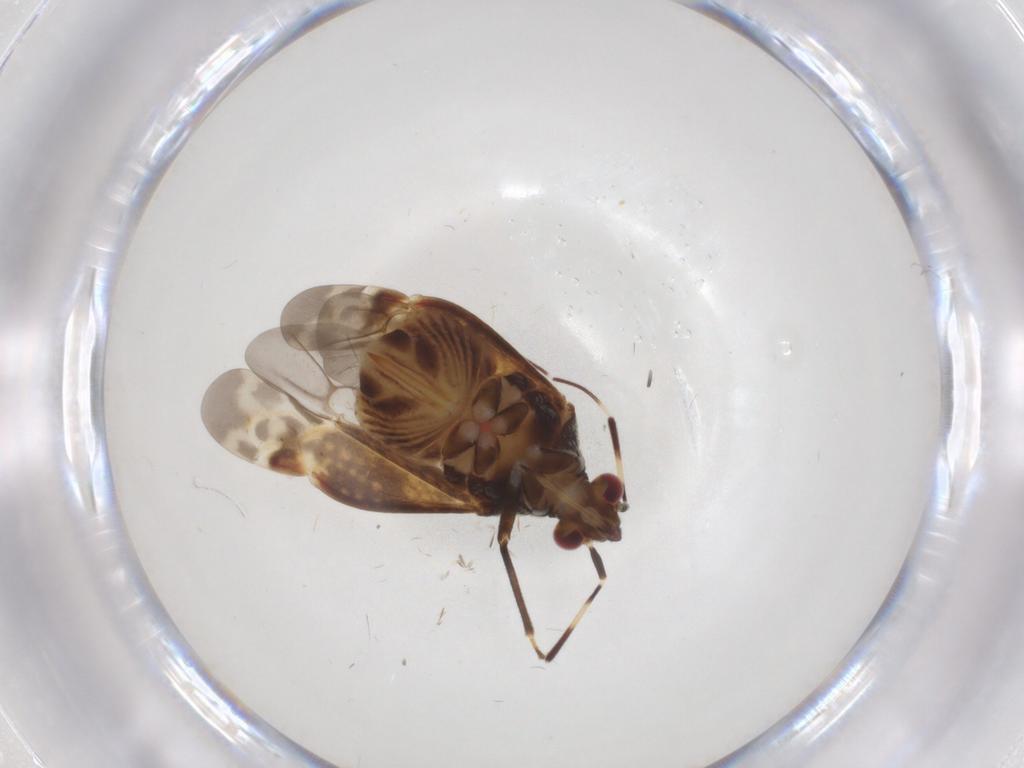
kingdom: Animalia
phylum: Arthropoda
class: Insecta
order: Hemiptera
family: Miridae
